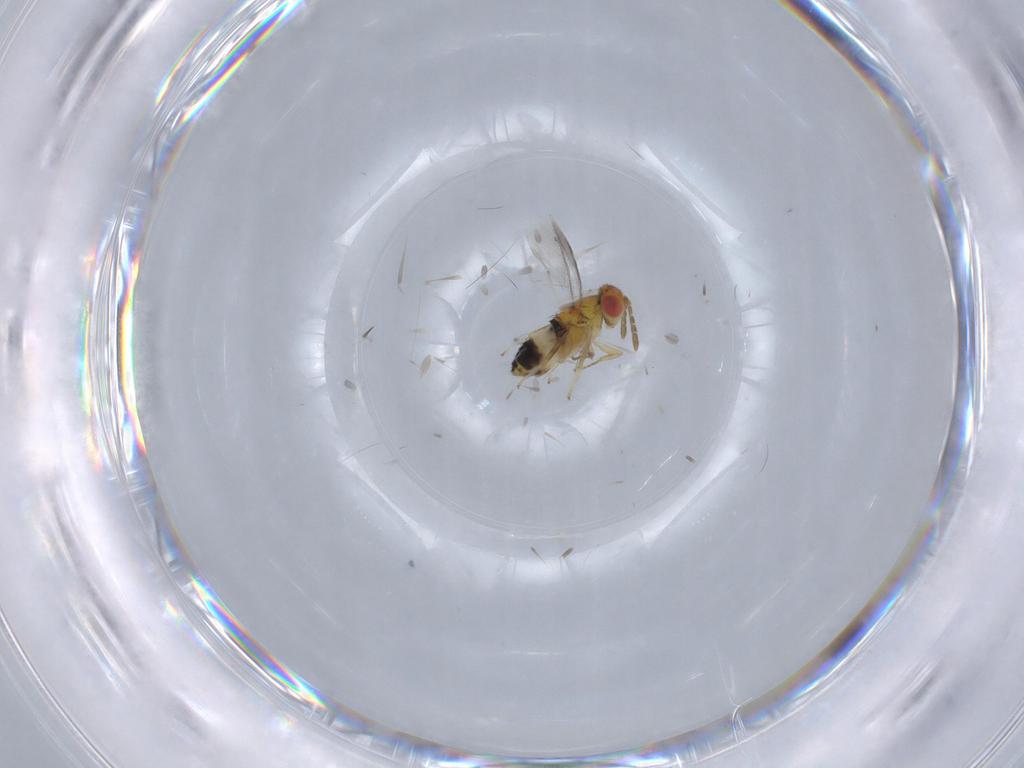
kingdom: Animalia
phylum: Arthropoda
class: Insecta
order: Hymenoptera
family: Aphelinidae
